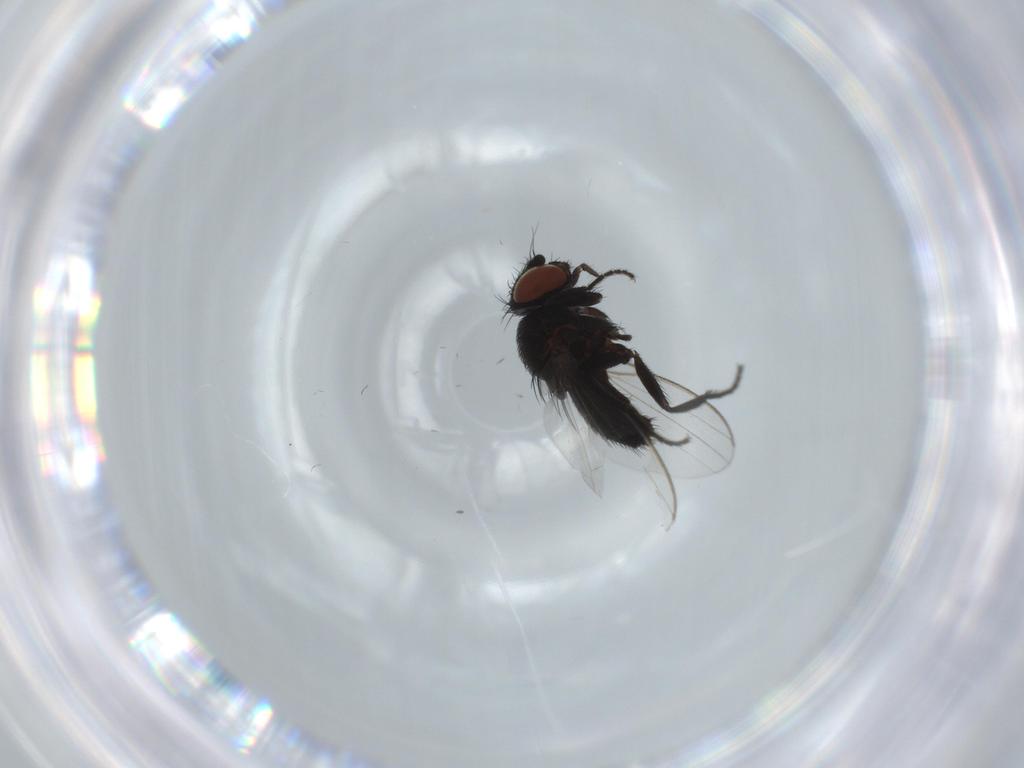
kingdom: Animalia
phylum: Arthropoda
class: Insecta
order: Diptera
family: Milichiidae
